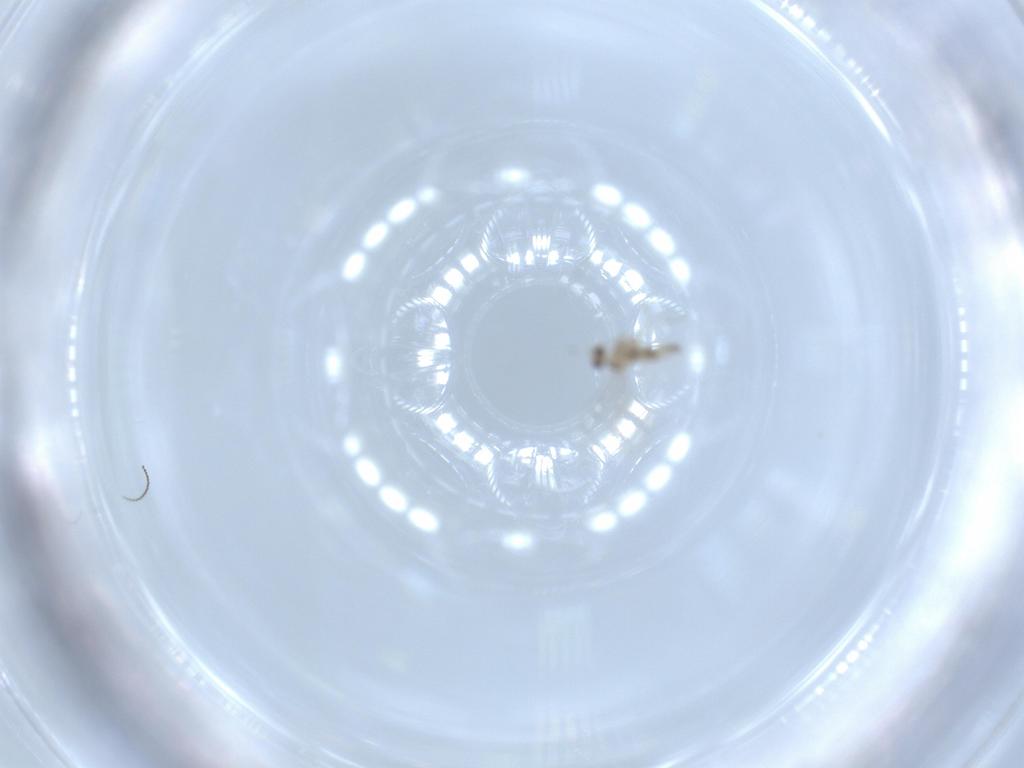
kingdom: Animalia
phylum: Arthropoda
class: Insecta
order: Diptera
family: Cecidomyiidae
